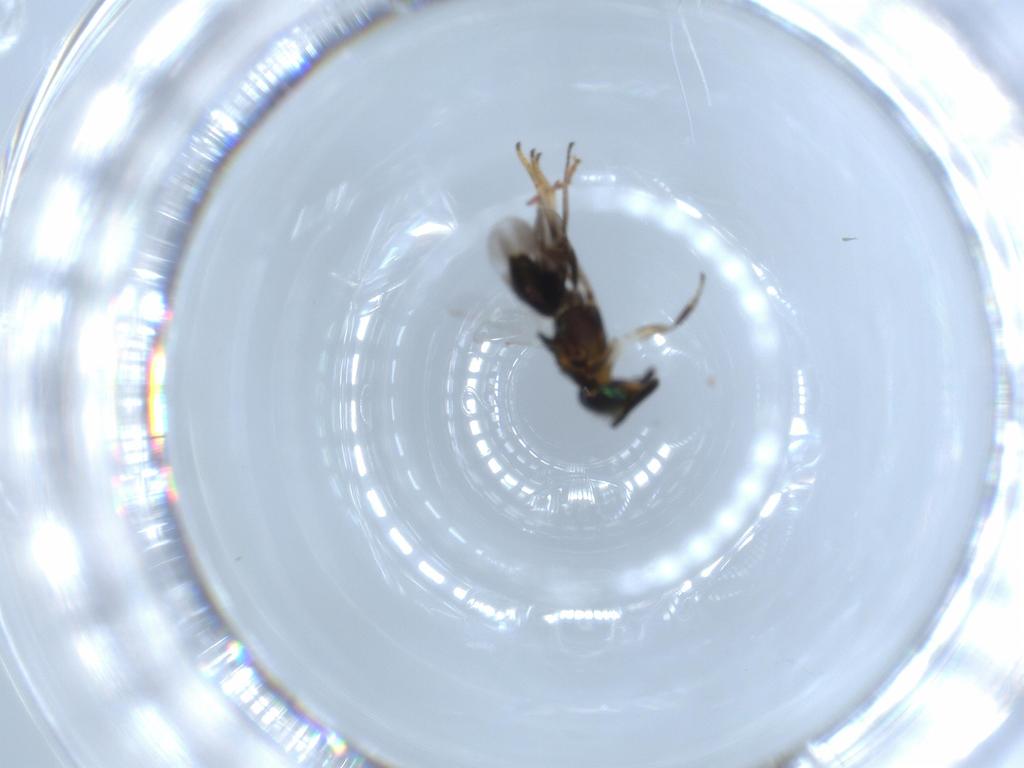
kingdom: Animalia
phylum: Arthropoda
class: Insecta
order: Hymenoptera
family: Formicidae
